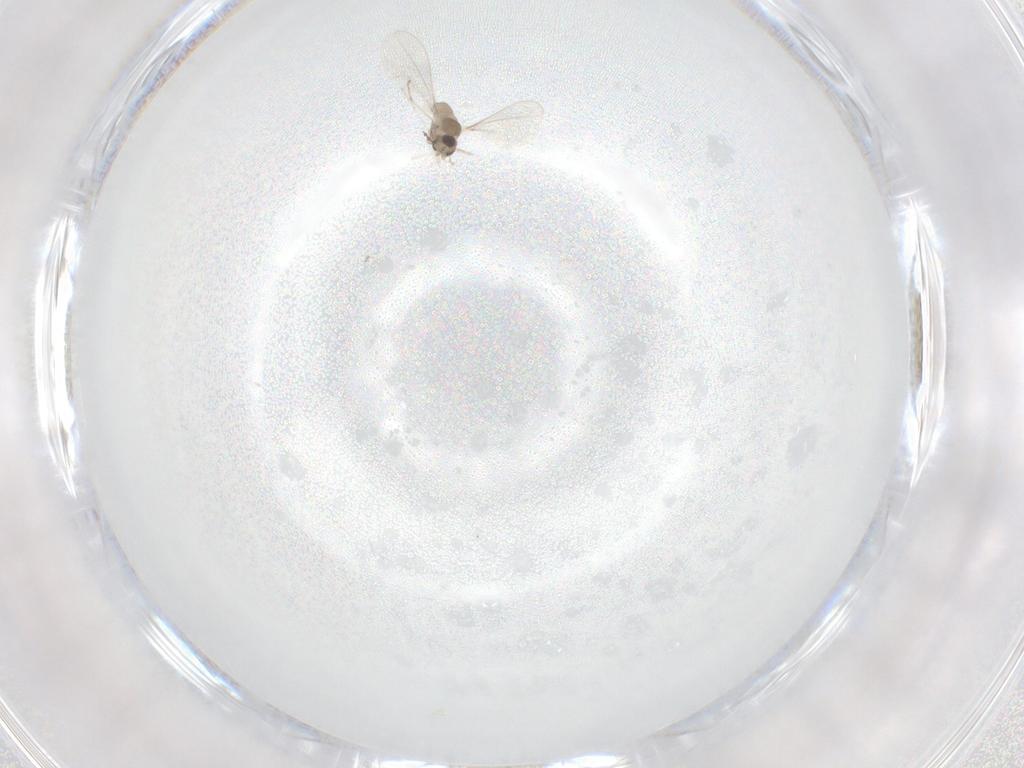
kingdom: Animalia
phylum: Arthropoda
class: Insecta
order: Diptera
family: Cecidomyiidae
